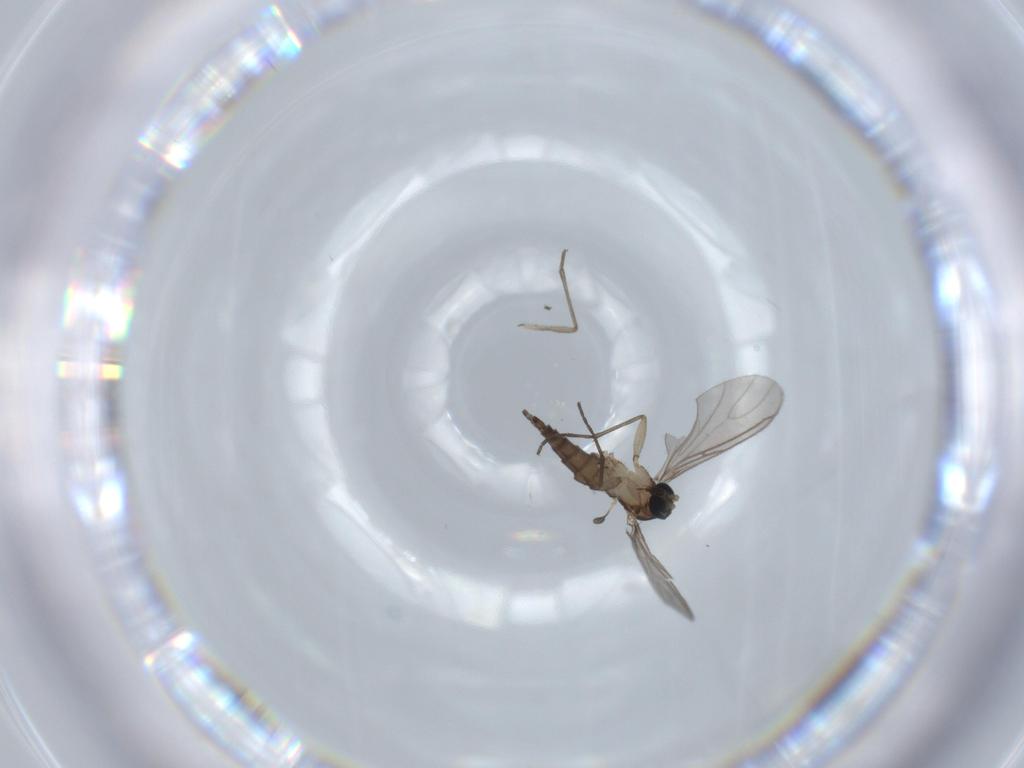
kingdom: Animalia
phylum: Arthropoda
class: Insecta
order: Diptera
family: Sciaridae
